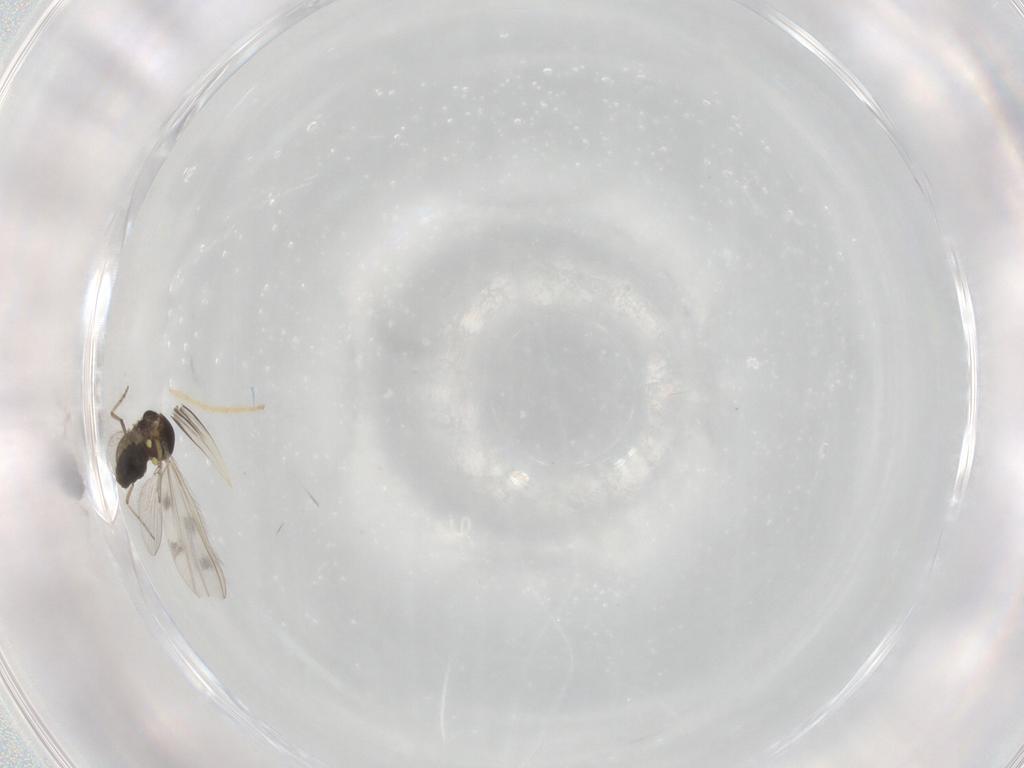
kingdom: Animalia
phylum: Arthropoda
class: Insecta
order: Diptera
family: Ceratopogonidae
